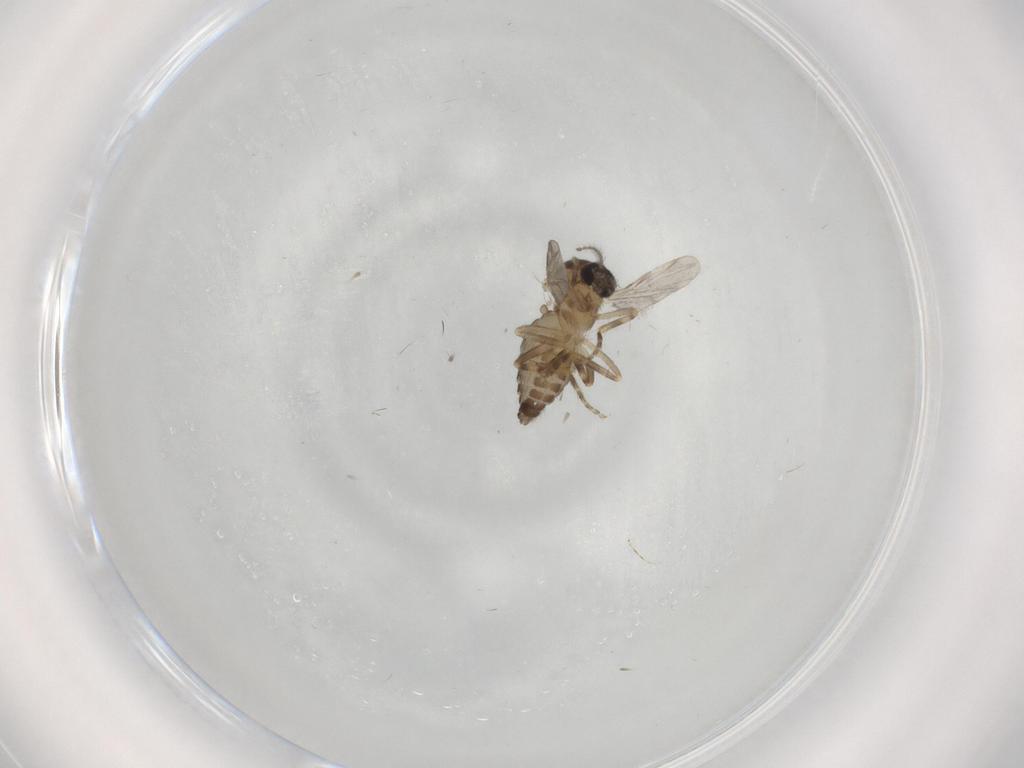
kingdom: Animalia
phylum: Arthropoda
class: Insecta
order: Diptera
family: Ceratopogonidae
